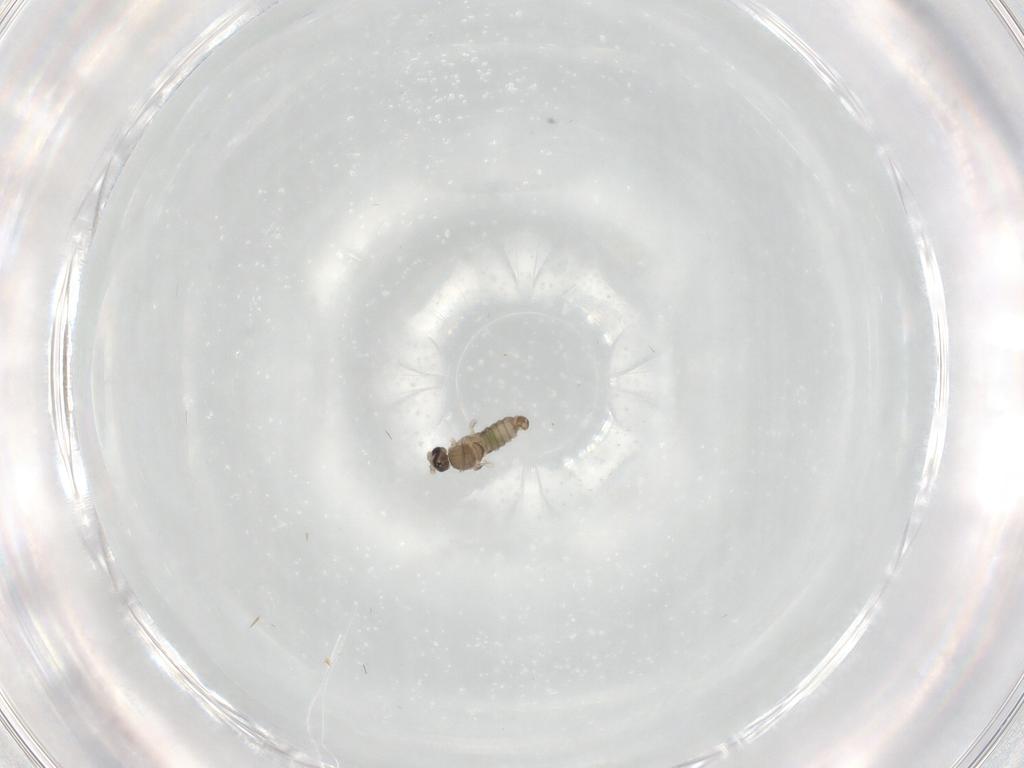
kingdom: Animalia
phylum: Arthropoda
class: Insecta
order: Diptera
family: Cecidomyiidae
